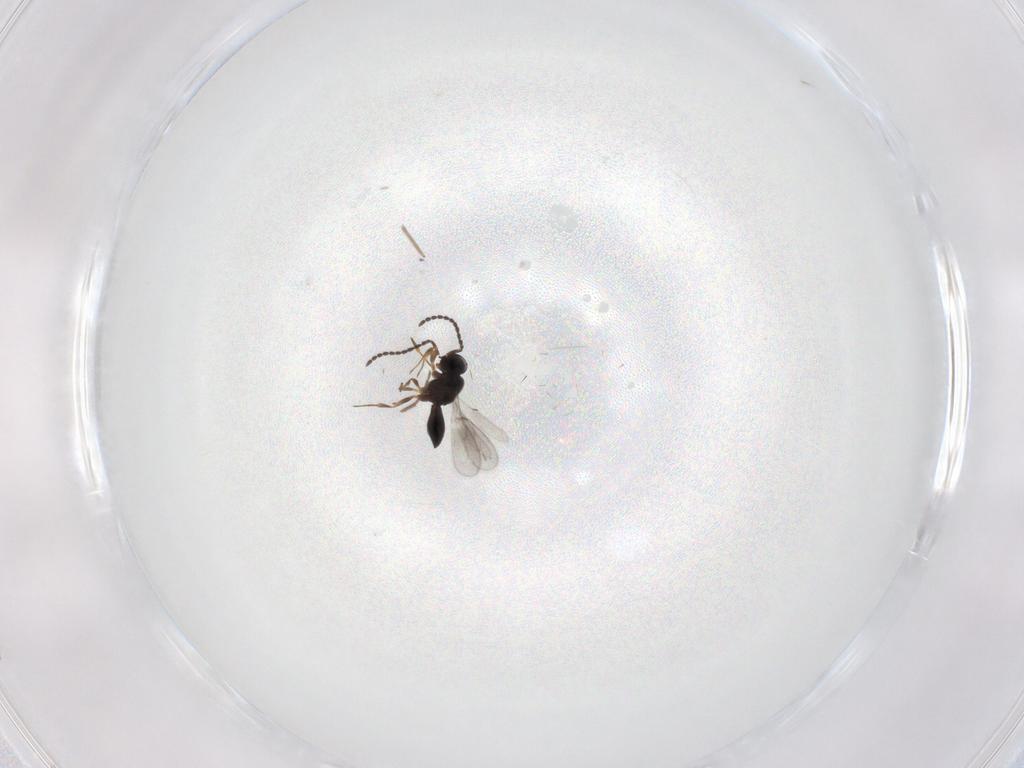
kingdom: Animalia
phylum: Arthropoda
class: Insecta
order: Hymenoptera
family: Scelionidae
